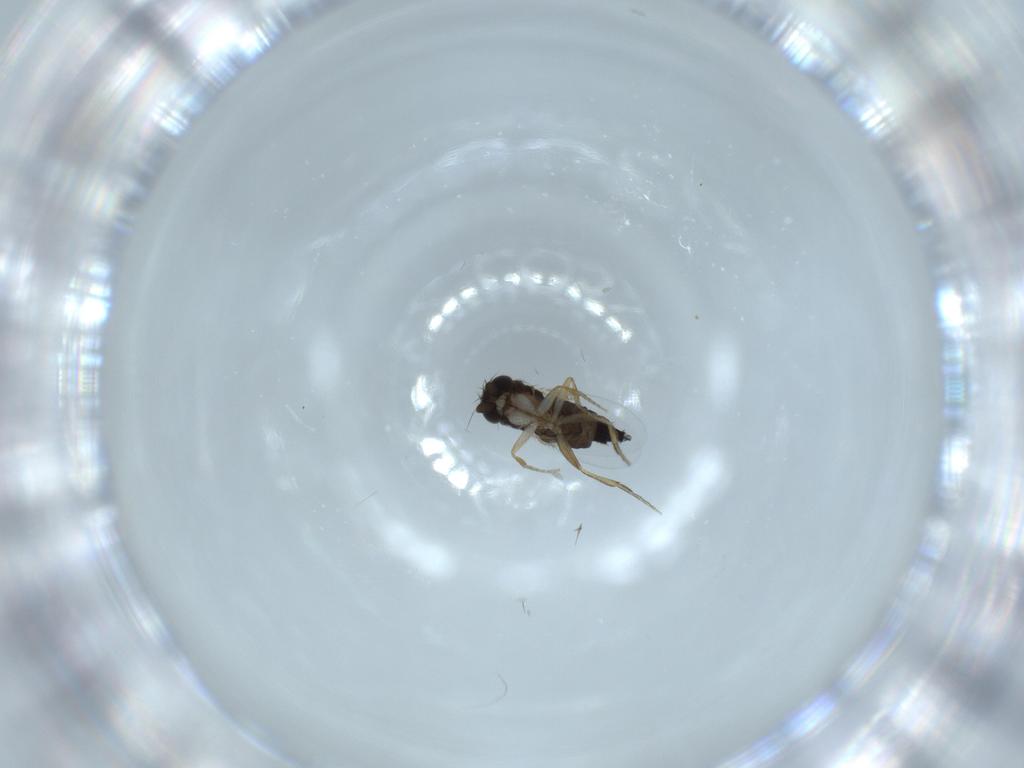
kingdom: Animalia
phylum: Arthropoda
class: Insecta
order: Diptera
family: Phoridae
